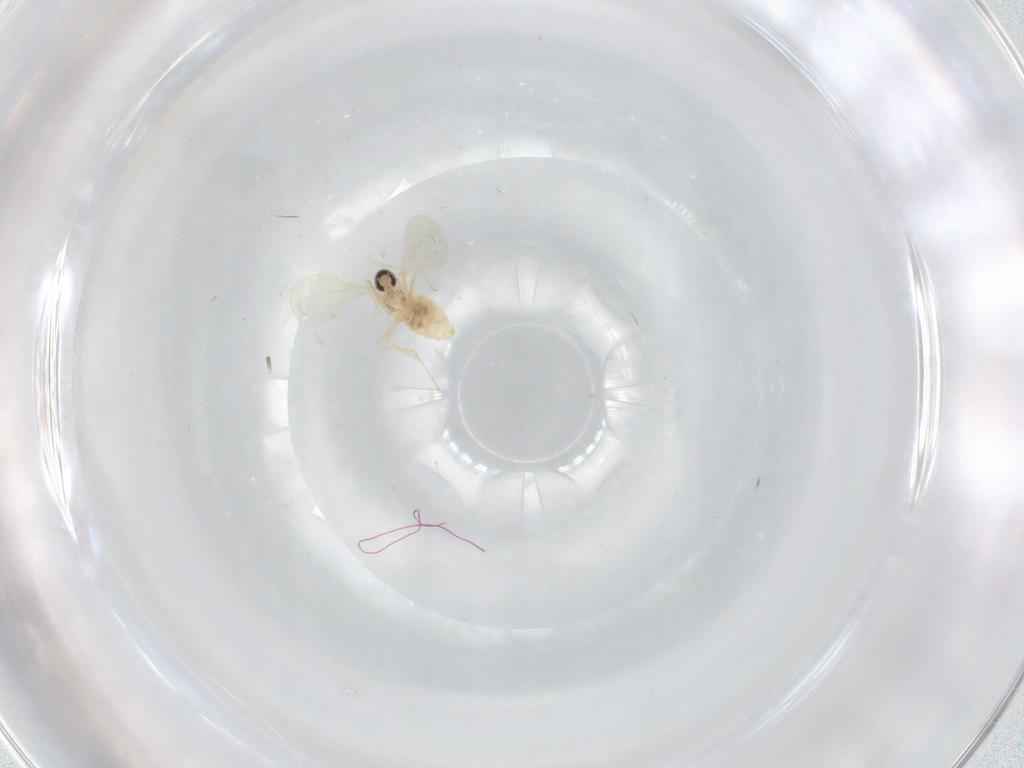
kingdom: Animalia
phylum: Arthropoda
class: Insecta
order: Diptera
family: Cecidomyiidae
